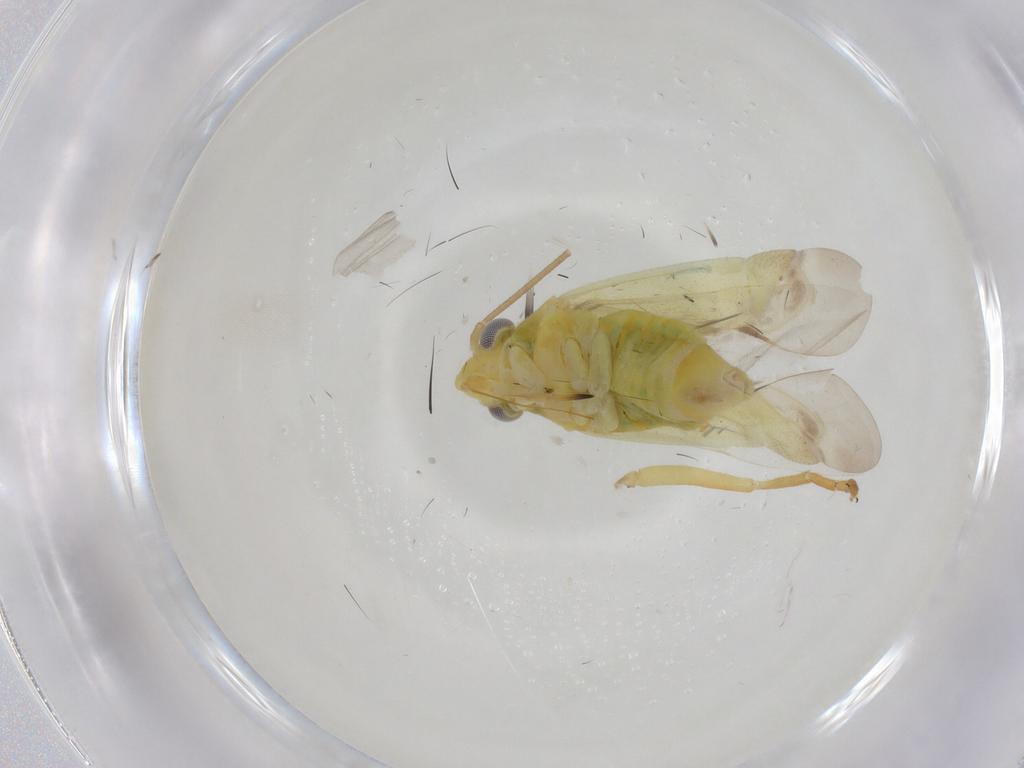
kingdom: Animalia
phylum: Arthropoda
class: Insecta
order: Hemiptera
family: Miridae
